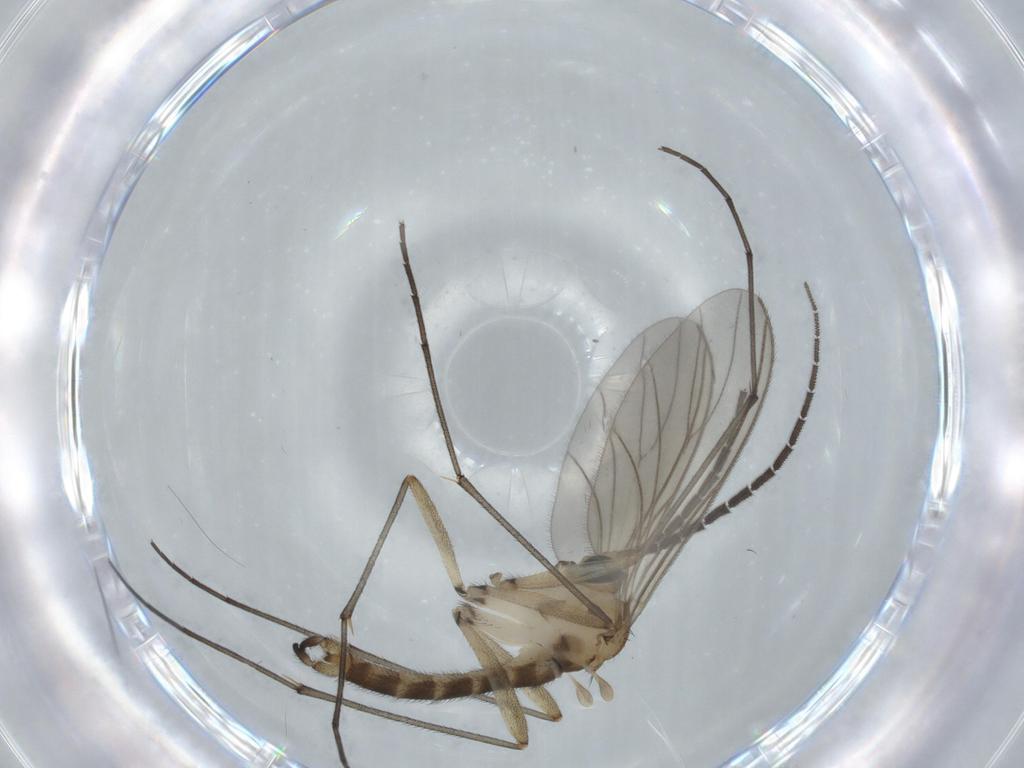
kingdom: Animalia
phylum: Arthropoda
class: Insecta
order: Diptera
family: Sciaridae
